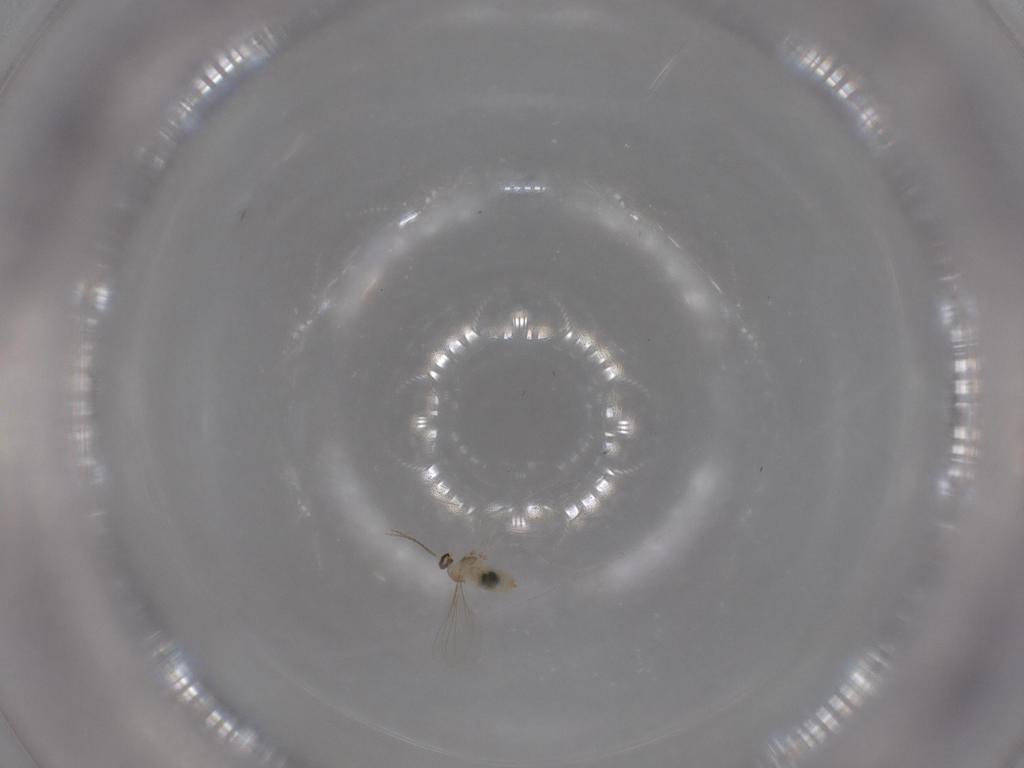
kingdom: Animalia
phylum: Arthropoda
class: Insecta
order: Diptera
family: Cecidomyiidae
